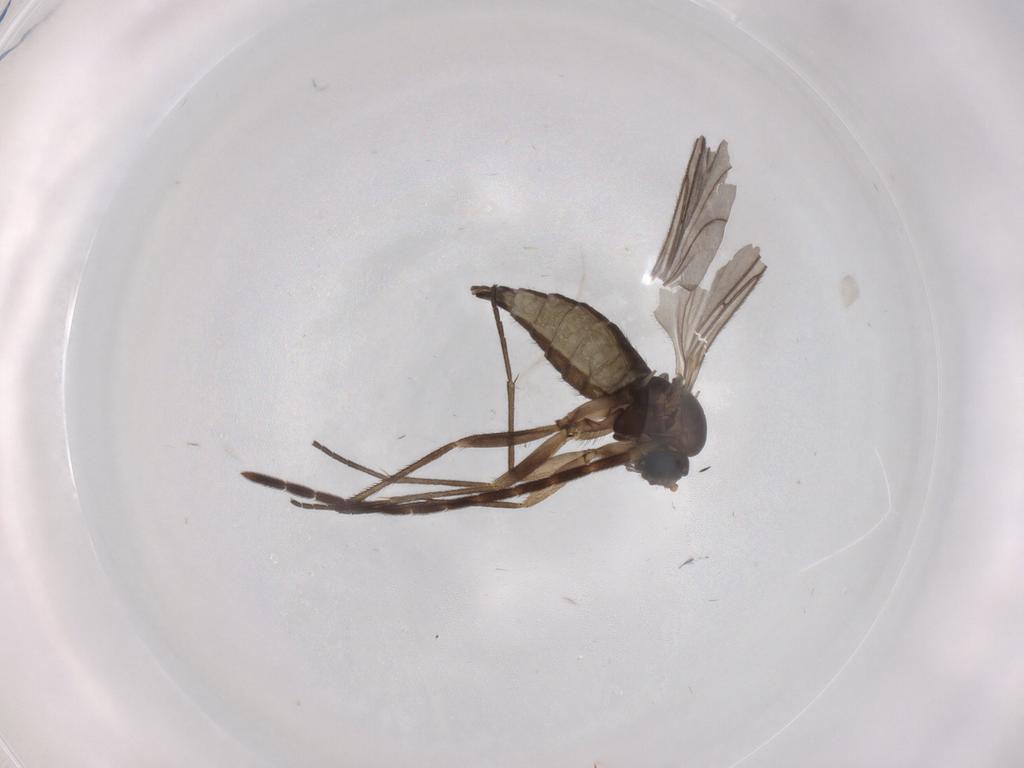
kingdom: Animalia
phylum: Arthropoda
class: Insecta
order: Diptera
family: Sciaridae
